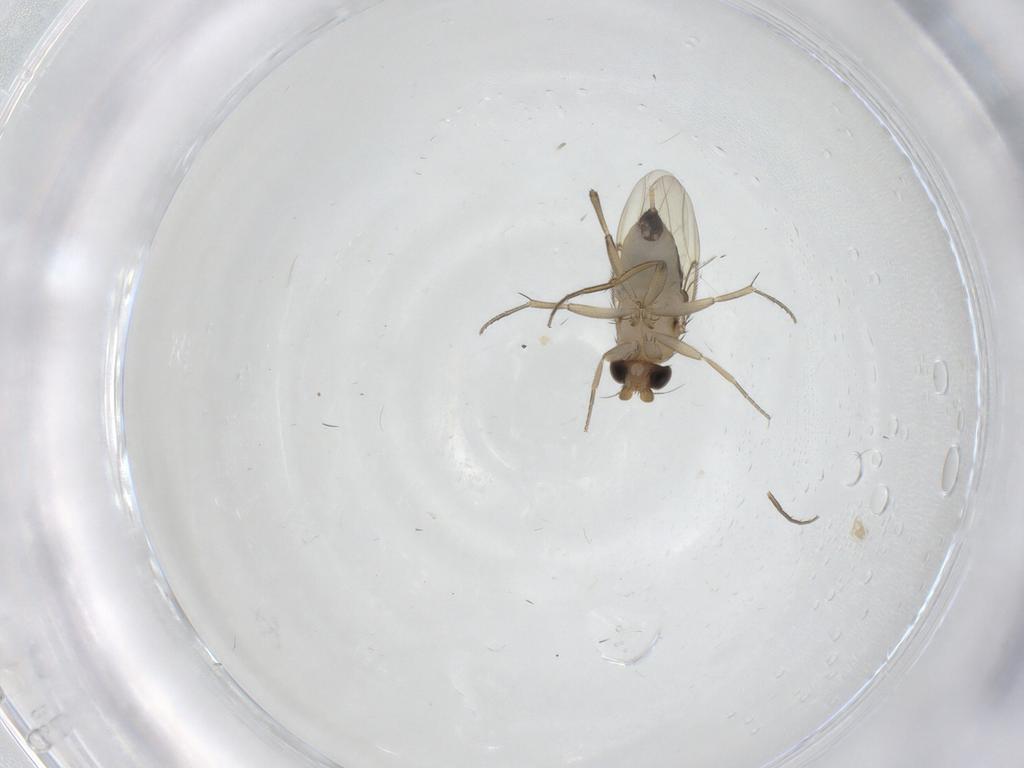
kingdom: Animalia
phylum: Arthropoda
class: Insecta
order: Diptera
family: Phoridae
